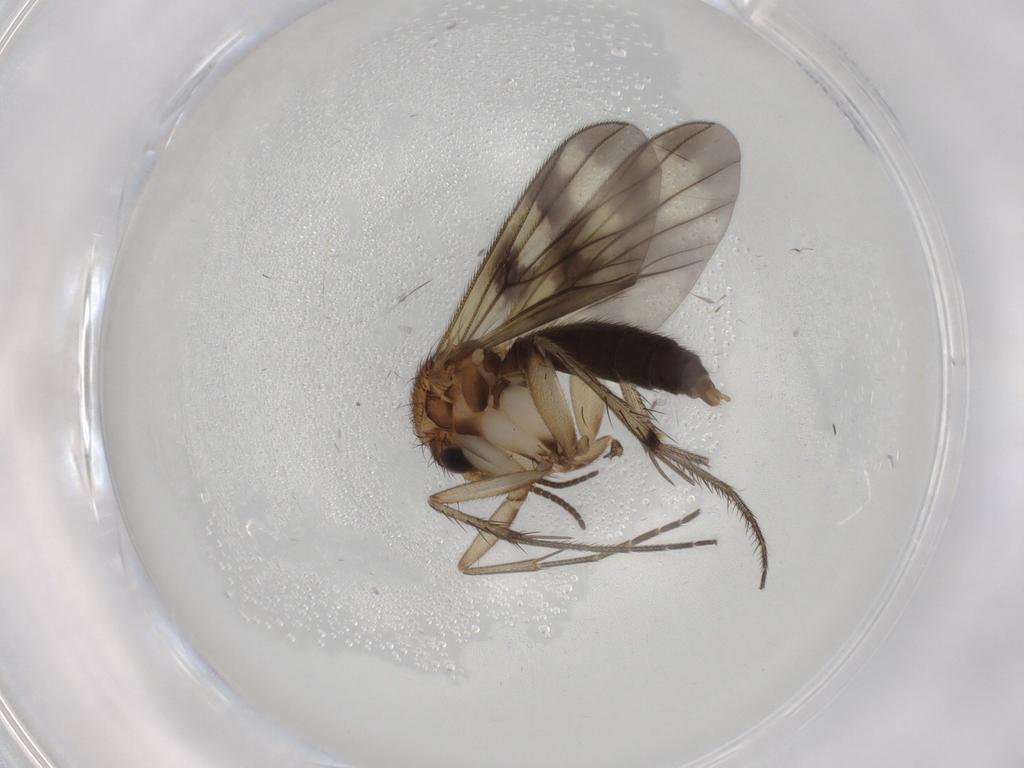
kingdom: Animalia
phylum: Arthropoda
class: Insecta
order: Diptera
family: Mycetophilidae
